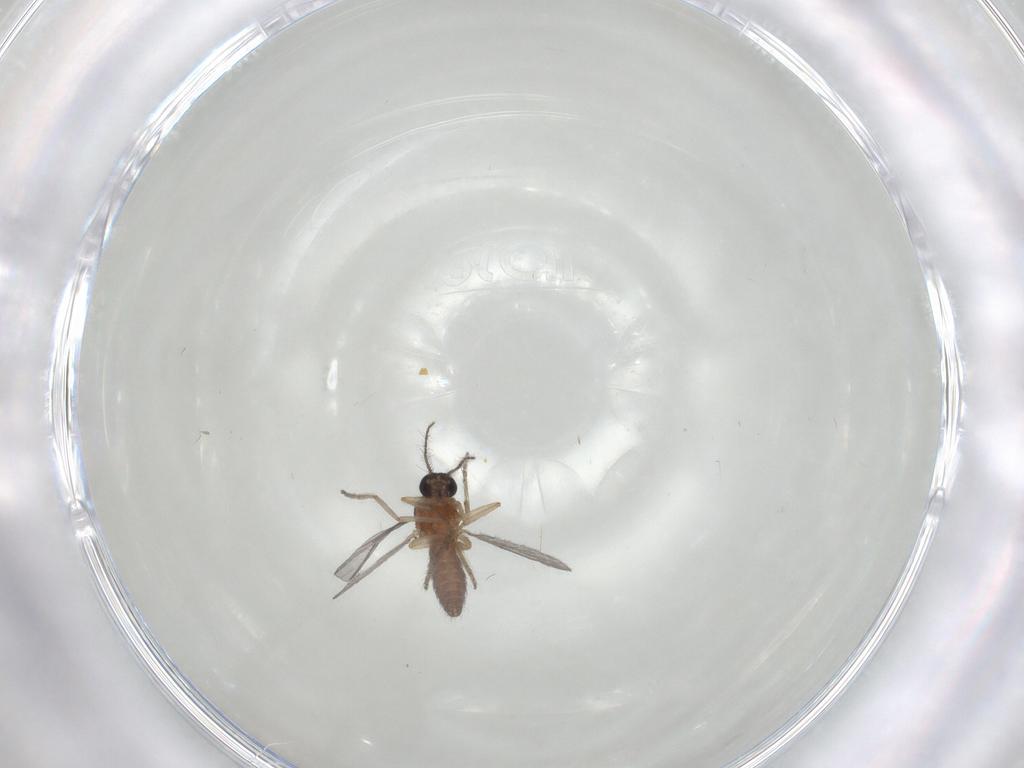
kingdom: Animalia
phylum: Arthropoda
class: Insecta
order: Diptera
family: Ceratopogonidae
